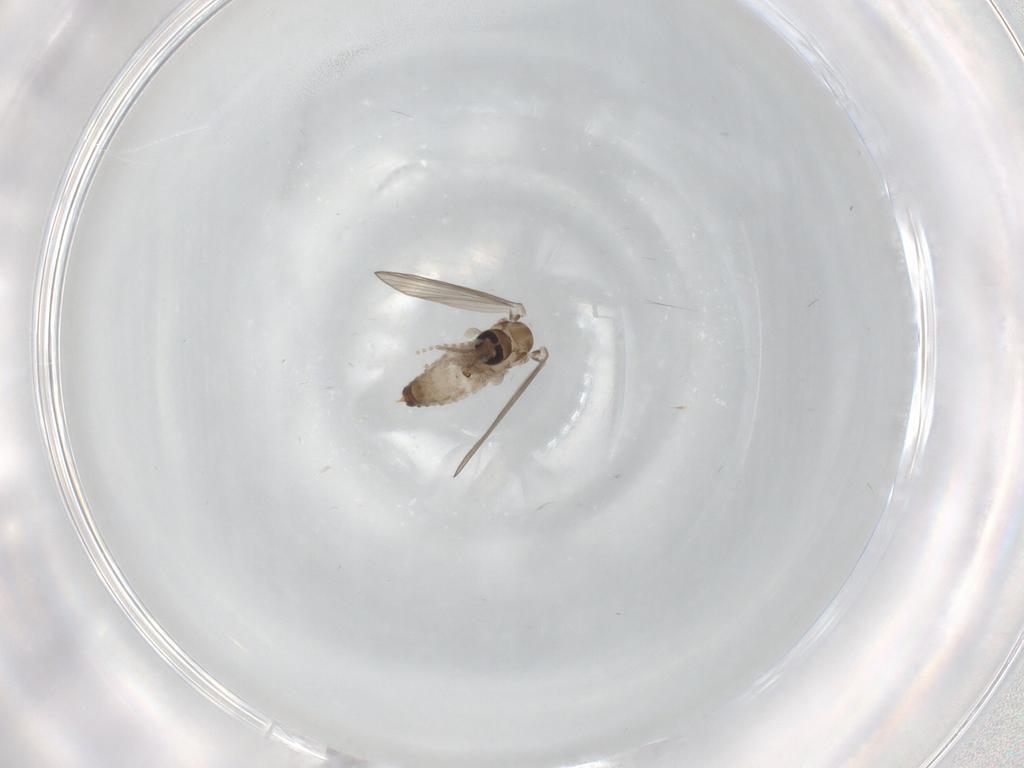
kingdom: Animalia
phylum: Arthropoda
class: Insecta
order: Diptera
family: Psychodidae
